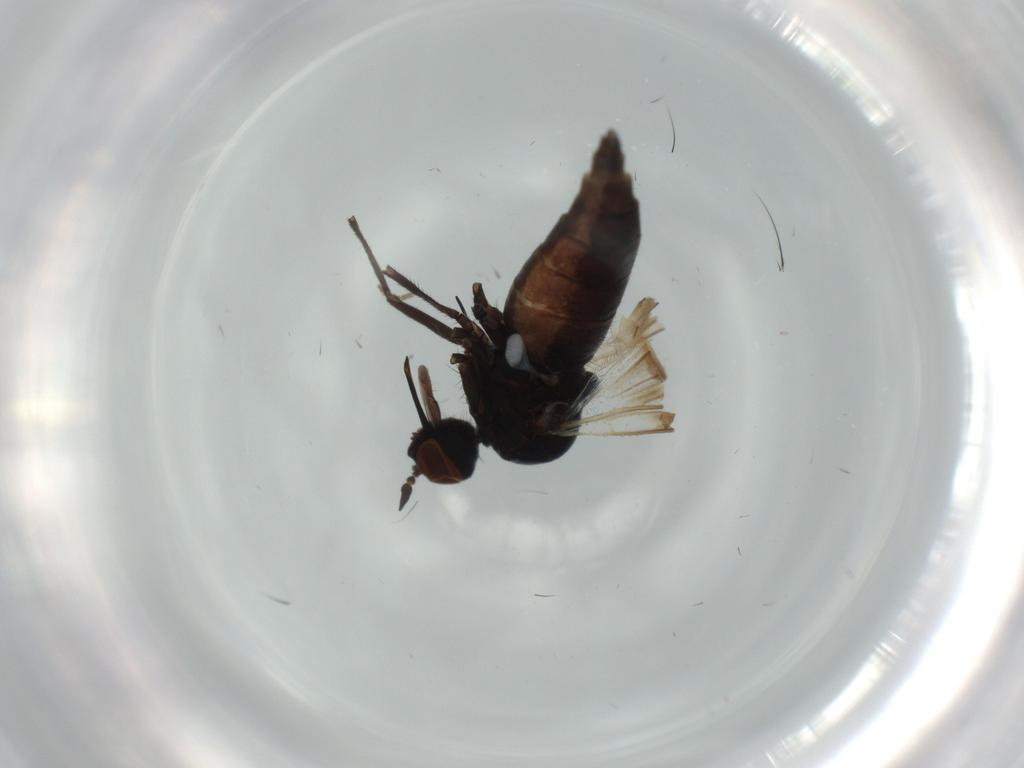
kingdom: Animalia
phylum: Arthropoda
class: Insecta
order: Diptera
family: Empididae
